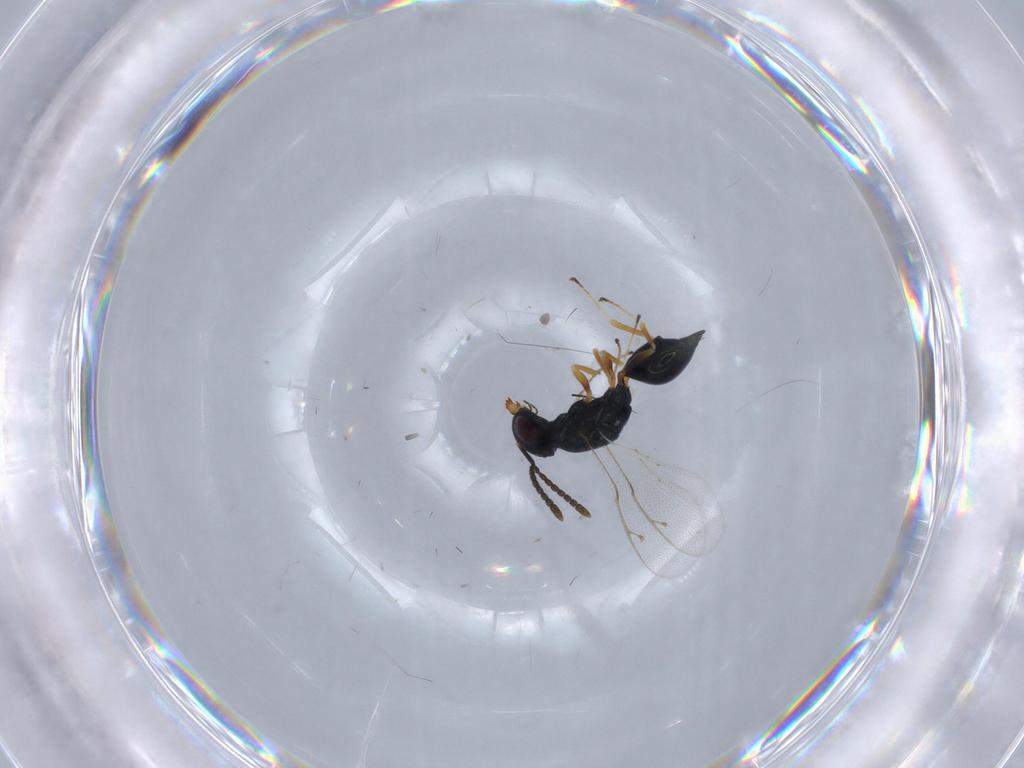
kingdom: Animalia
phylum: Arthropoda
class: Insecta
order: Hymenoptera
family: Pteromalidae
